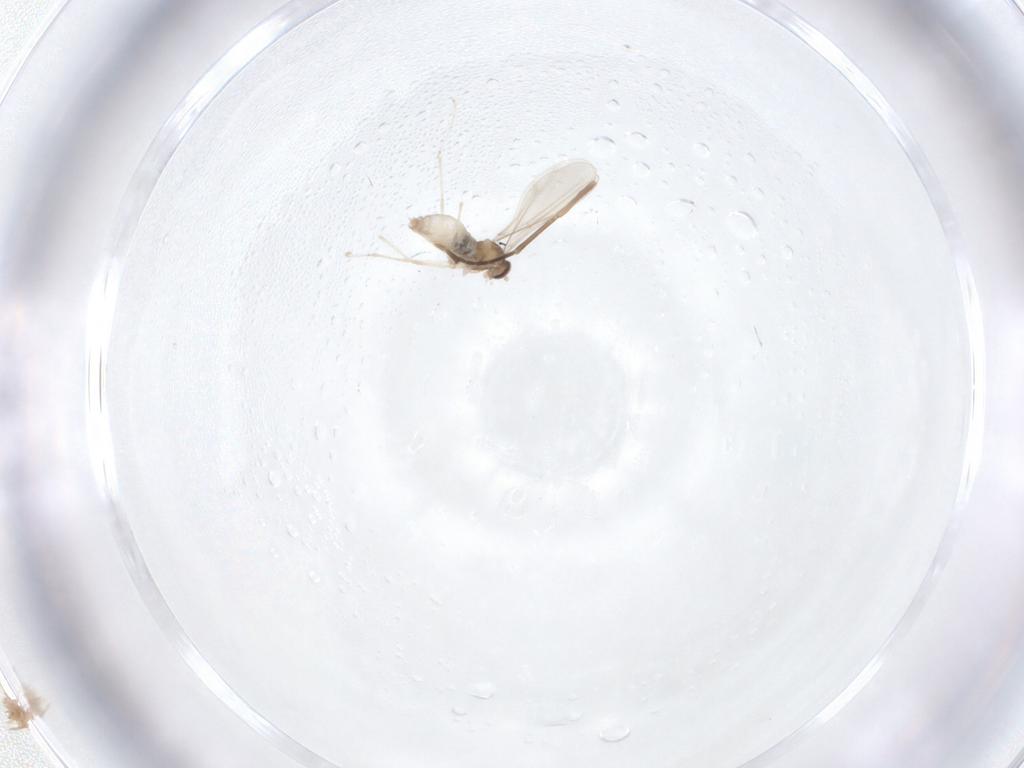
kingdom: Animalia
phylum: Arthropoda
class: Insecta
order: Diptera
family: Cecidomyiidae
